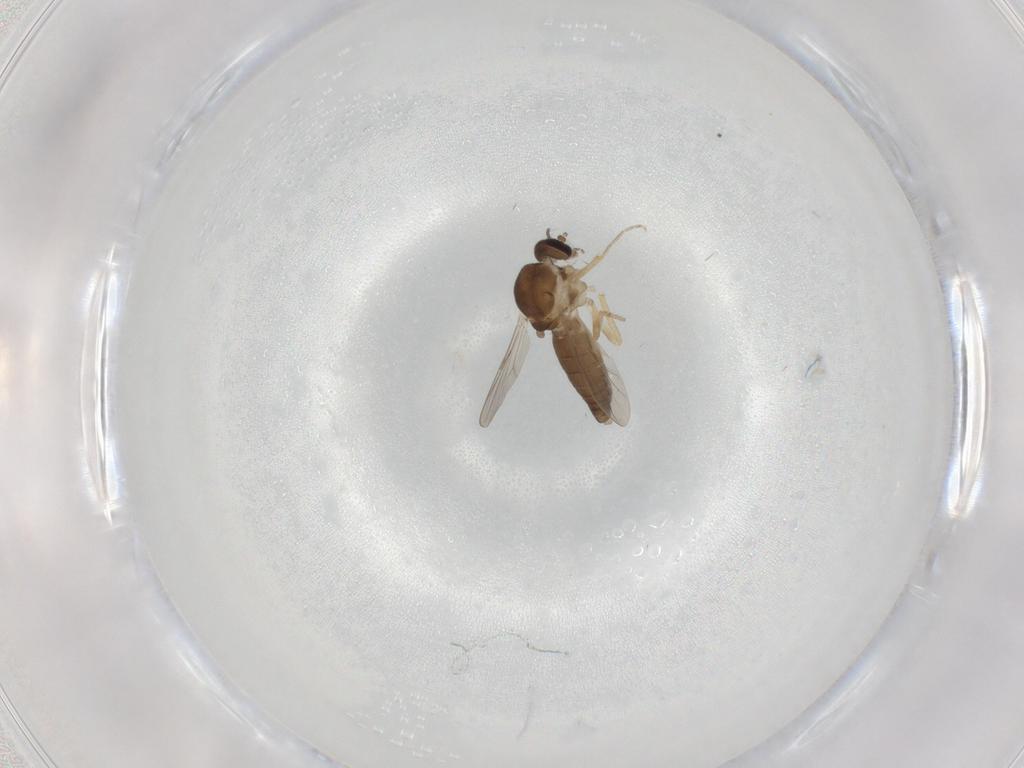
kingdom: Animalia
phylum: Arthropoda
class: Insecta
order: Diptera
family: Ceratopogonidae
